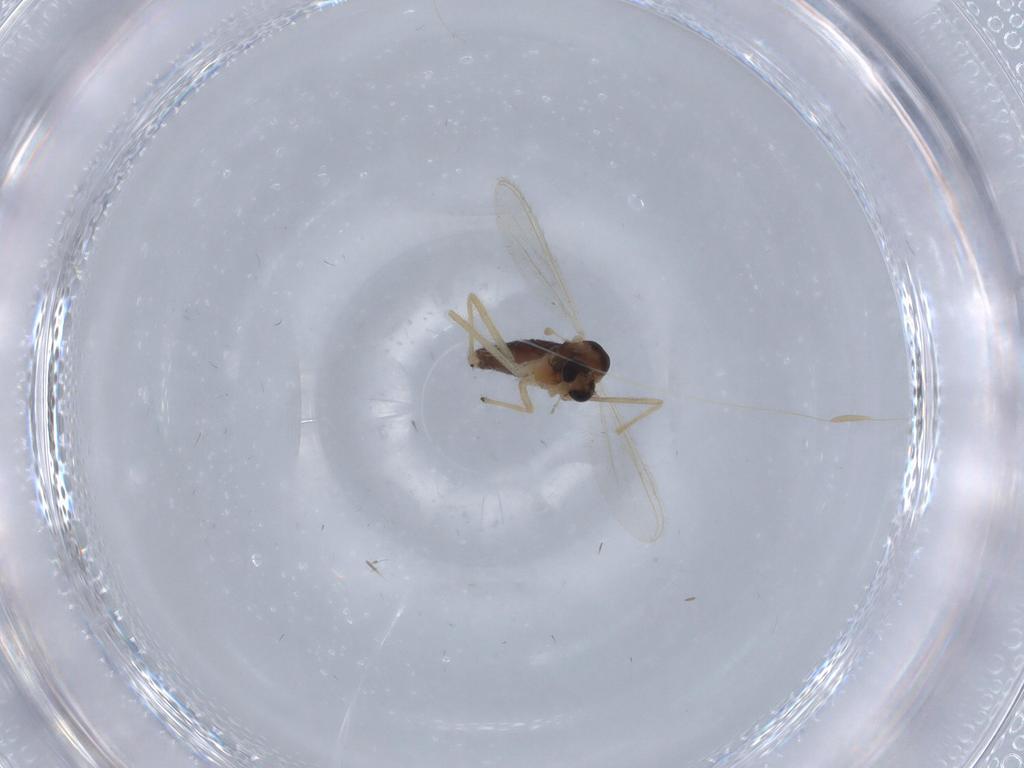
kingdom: Animalia
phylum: Arthropoda
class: Insecta
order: Diptera
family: Chironomidae
